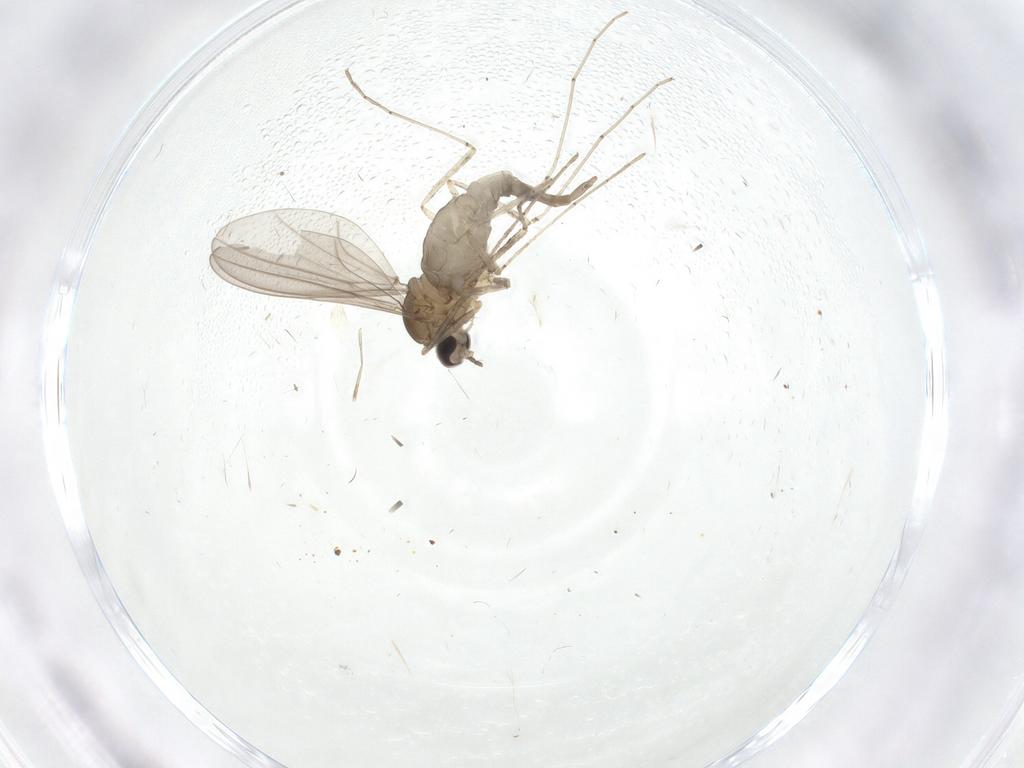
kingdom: Animalia
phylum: Arthropoda
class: Insecta
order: Diptera
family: Cecidomyiidae
